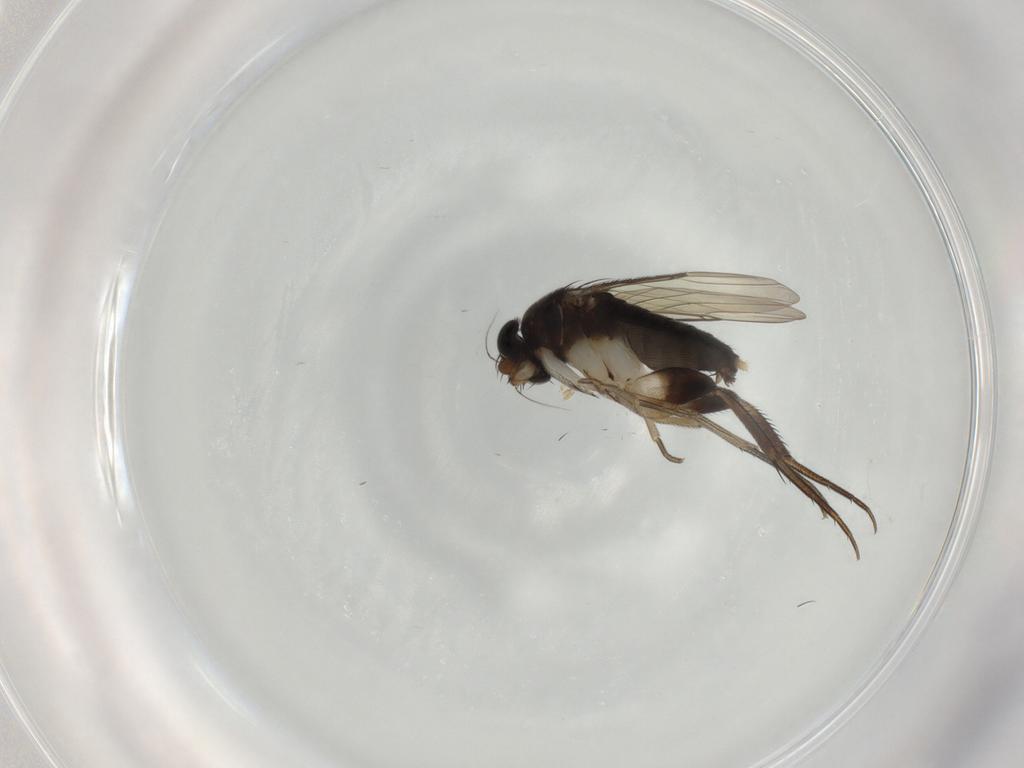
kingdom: Animalia
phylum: Arthropoda
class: Insecta
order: Diptera
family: Phoridae
